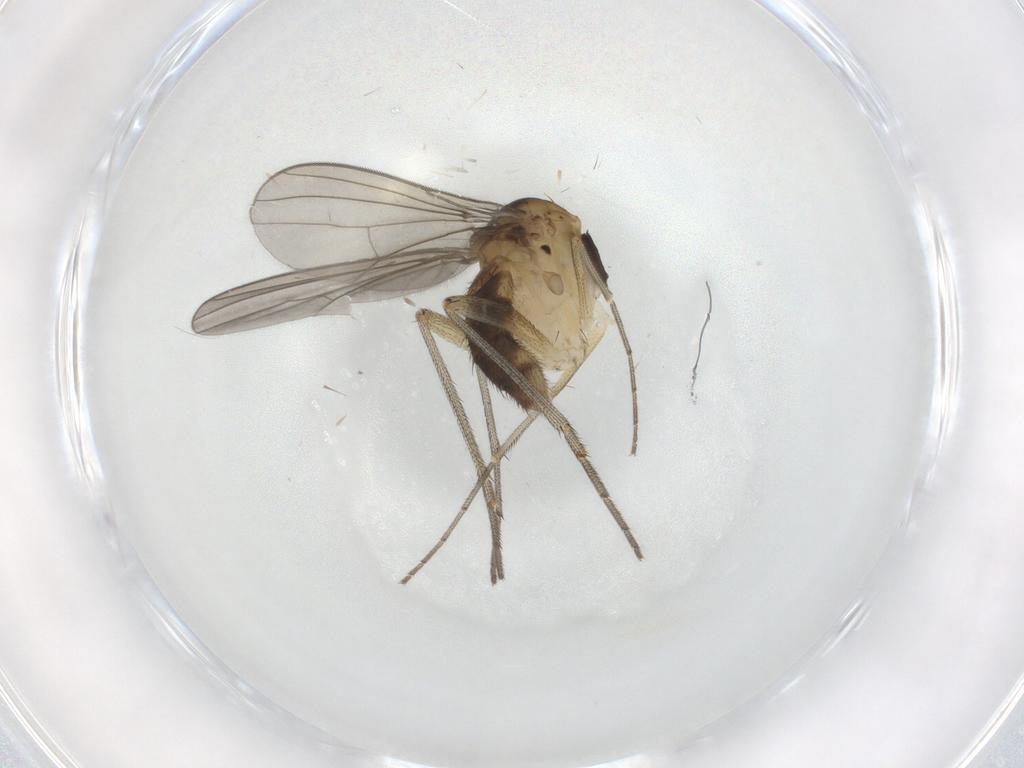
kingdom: Animalia
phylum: Arthropoda
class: Insecta
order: Diptera
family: Dolichopodidae
